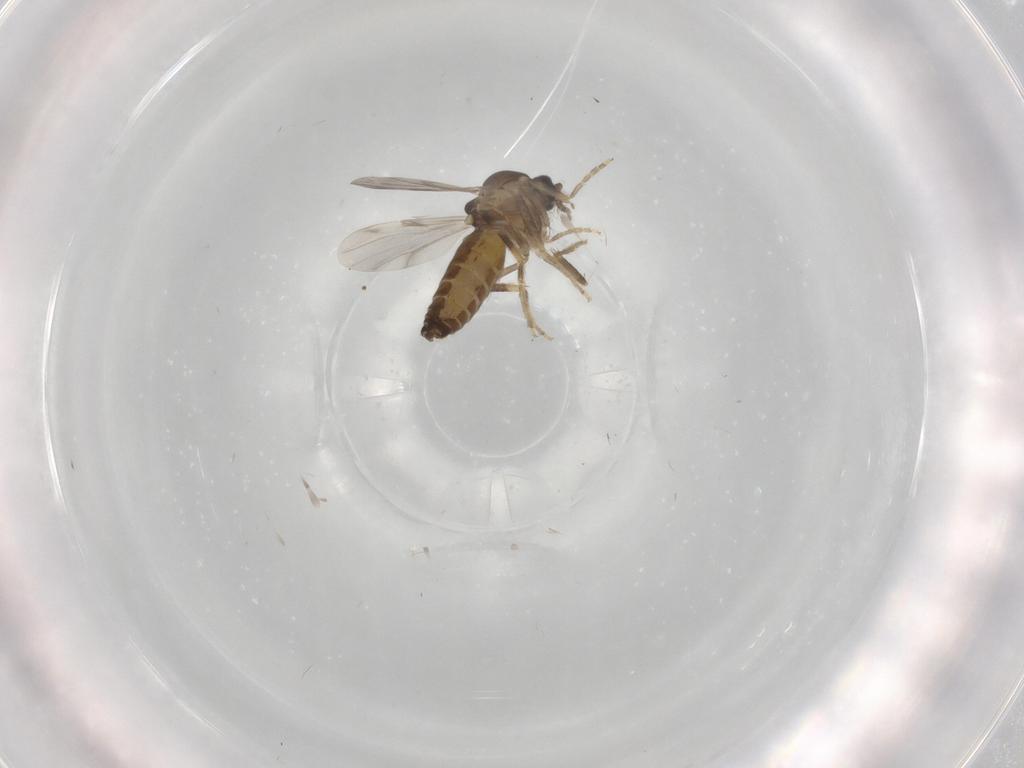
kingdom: Animalia
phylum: Arthropoda
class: Insecta
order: Diptera
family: Ceratopogonidae
